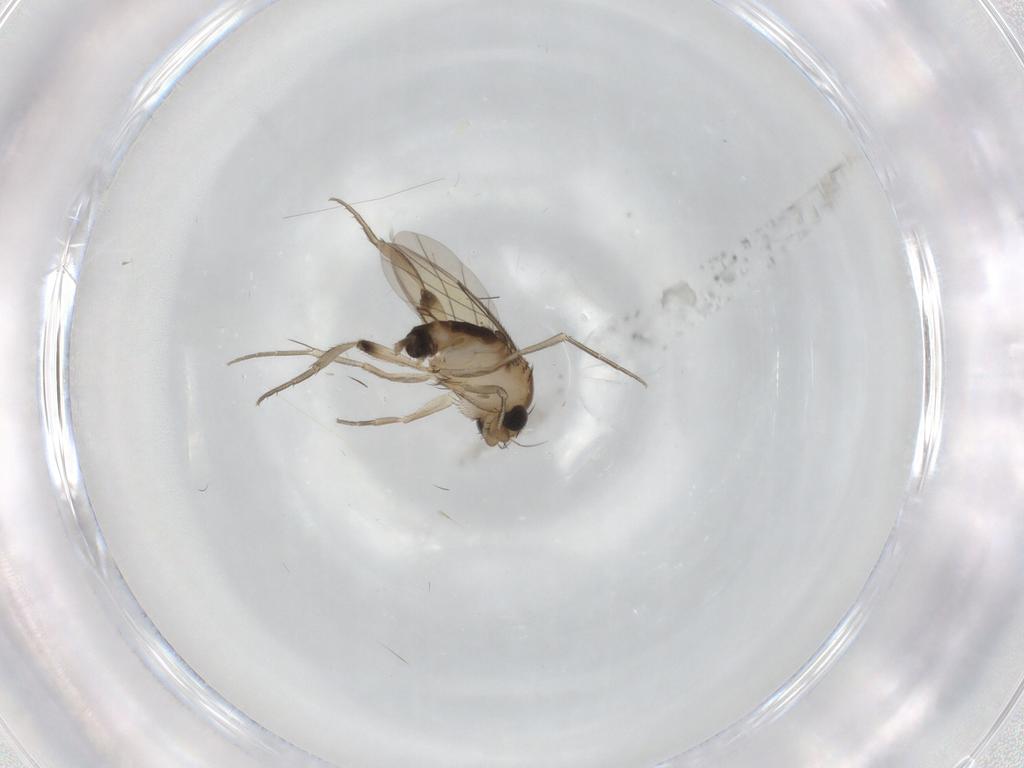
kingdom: Animalia
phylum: Arthropoda
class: Insecta
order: Diptera
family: Phoridae
